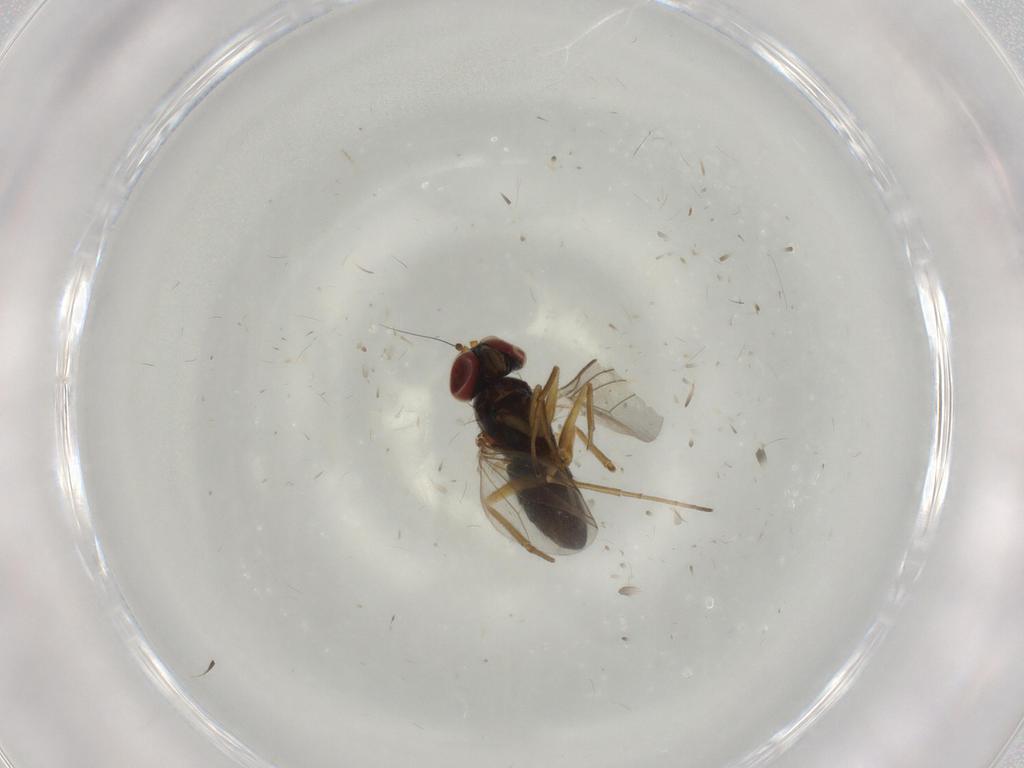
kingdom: Animalia
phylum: Arthropoda
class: Insecta
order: Diptera
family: Dolichopodidae
